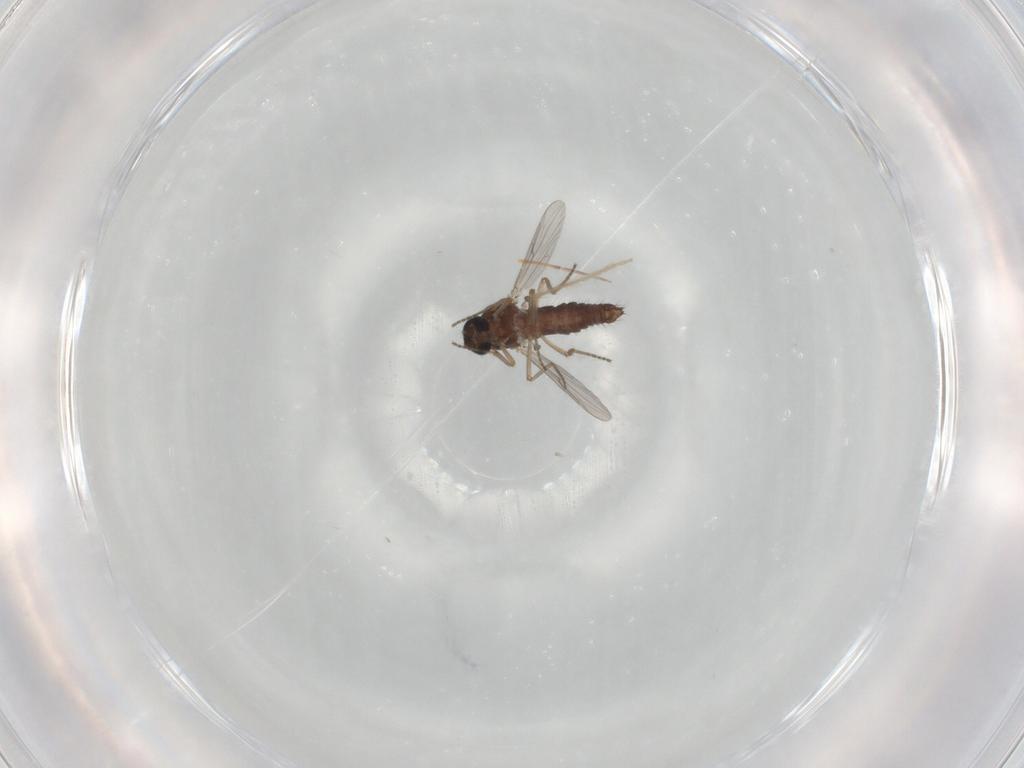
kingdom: Animalia
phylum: Arthropoda
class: Insecta
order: Diptera
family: Ceratopogonidae
